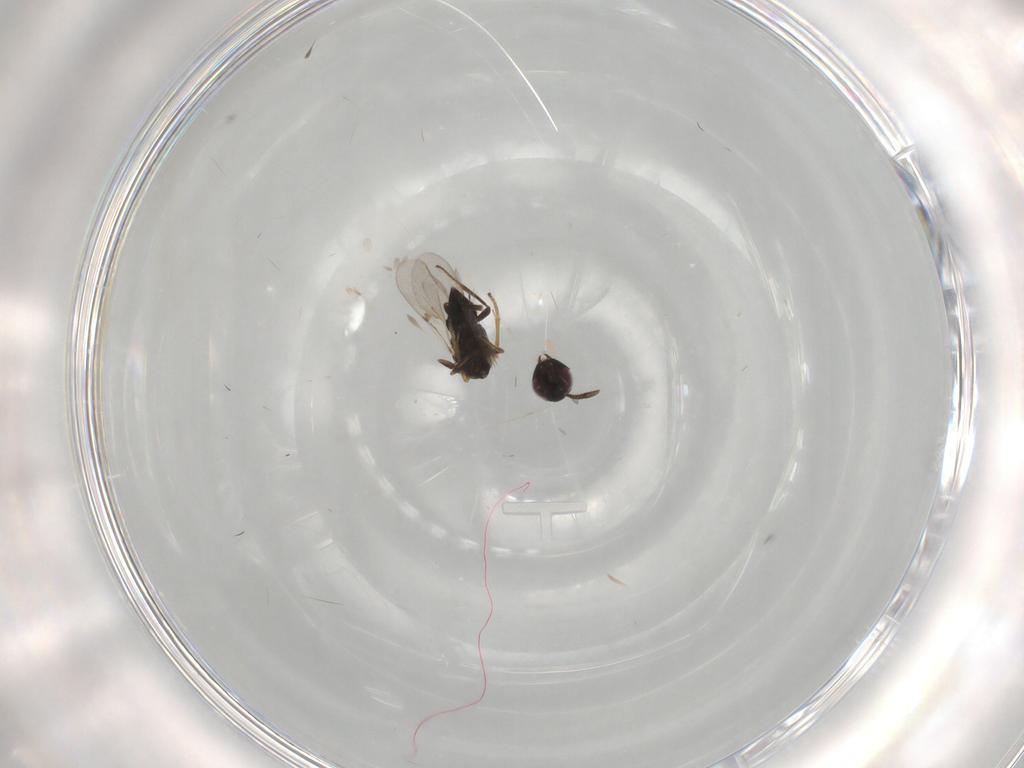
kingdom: Animalia
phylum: Arthropoda
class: Insecta
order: Hymenoptera
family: Encyrtidae
